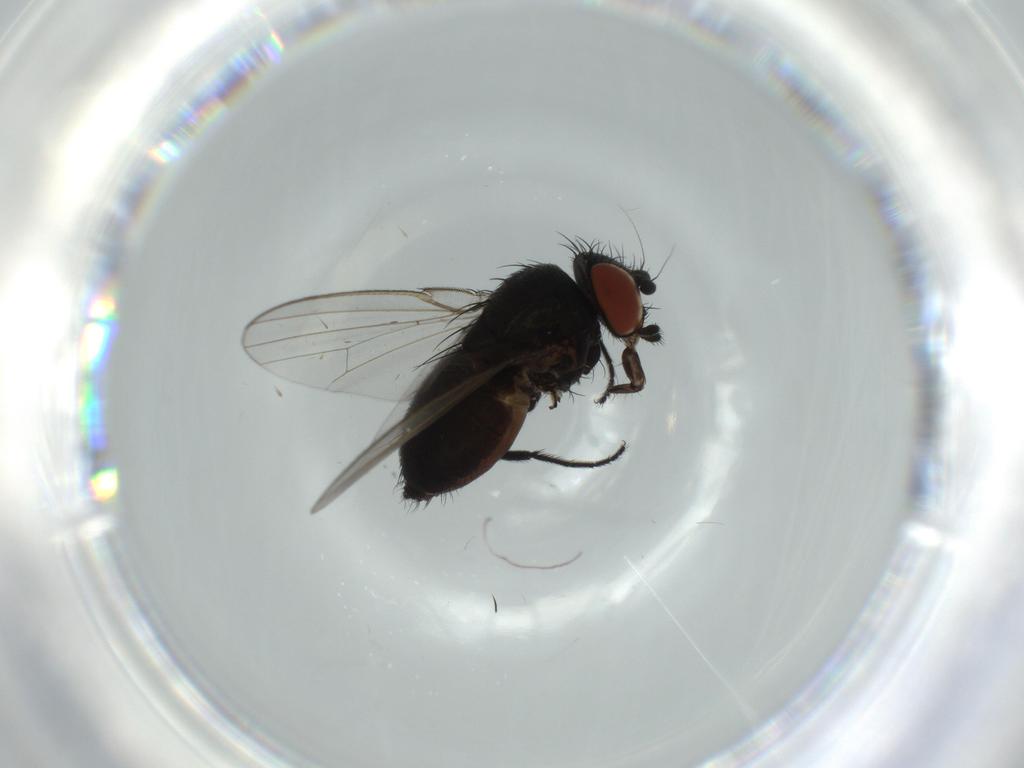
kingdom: Animalia
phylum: Arthropoda
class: Insecta
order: Diptera
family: Milichiidae
